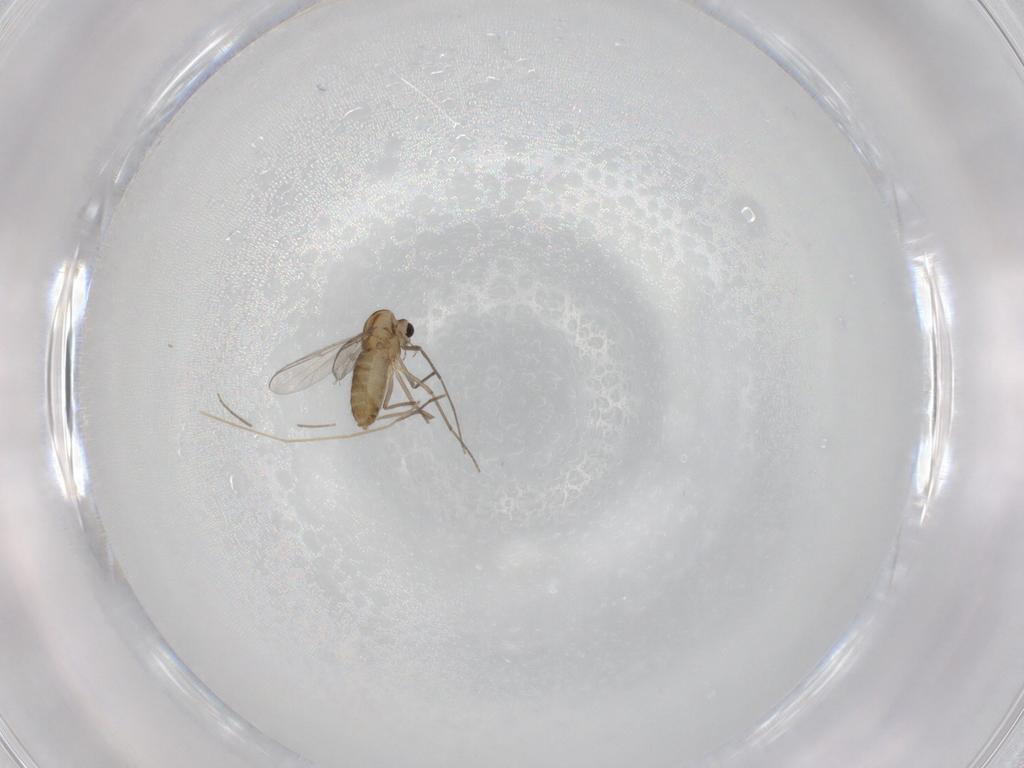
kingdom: Animalia
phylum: Arthropoda
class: Insecta
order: Diptera
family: Chironomidae
